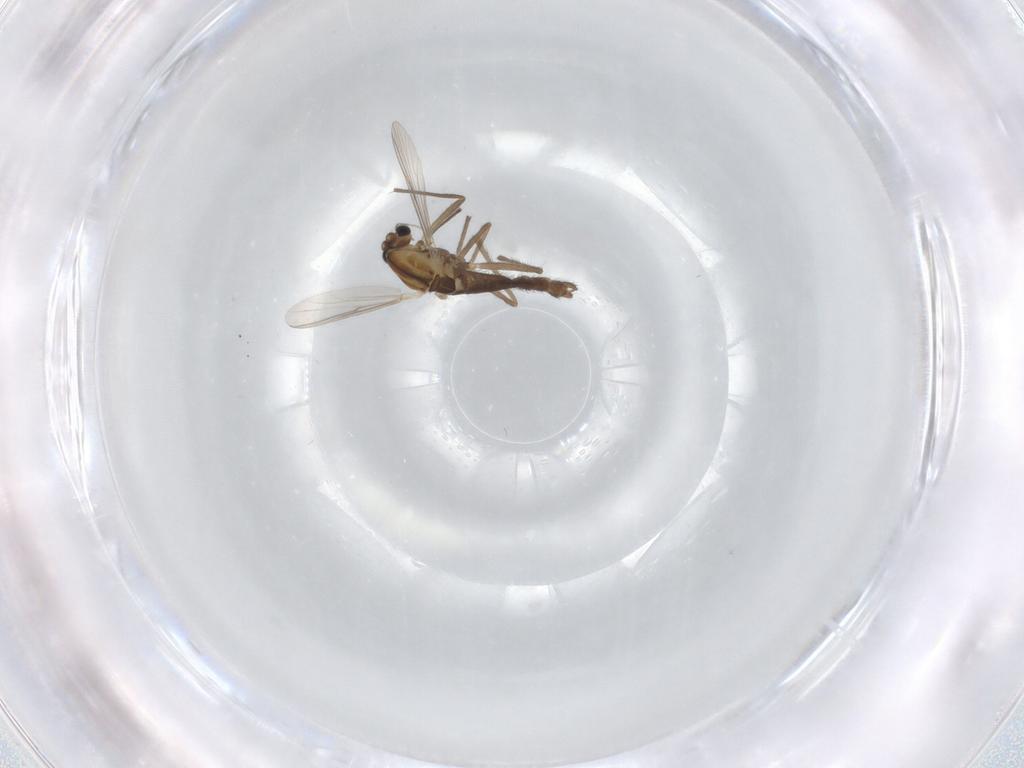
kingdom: Animalia
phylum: Arthropoda
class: Insecta
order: Diptera
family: Chironomidae
